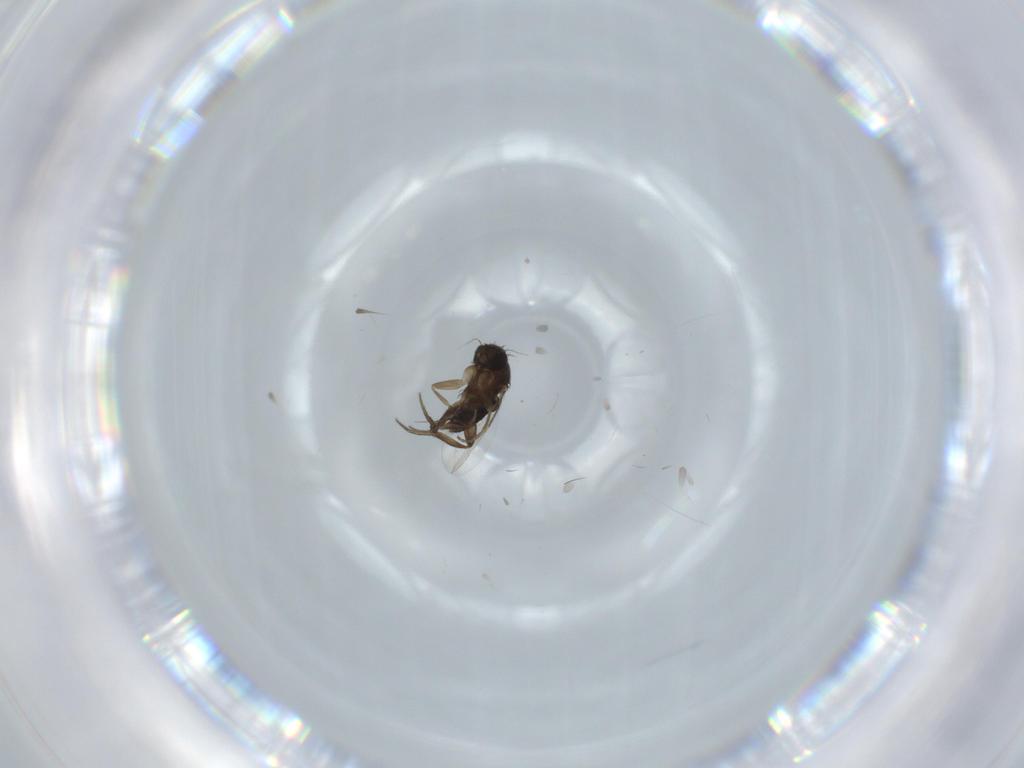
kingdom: Animalia
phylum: Arthropoda
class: Insecta
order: Diptera
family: Phoridae
